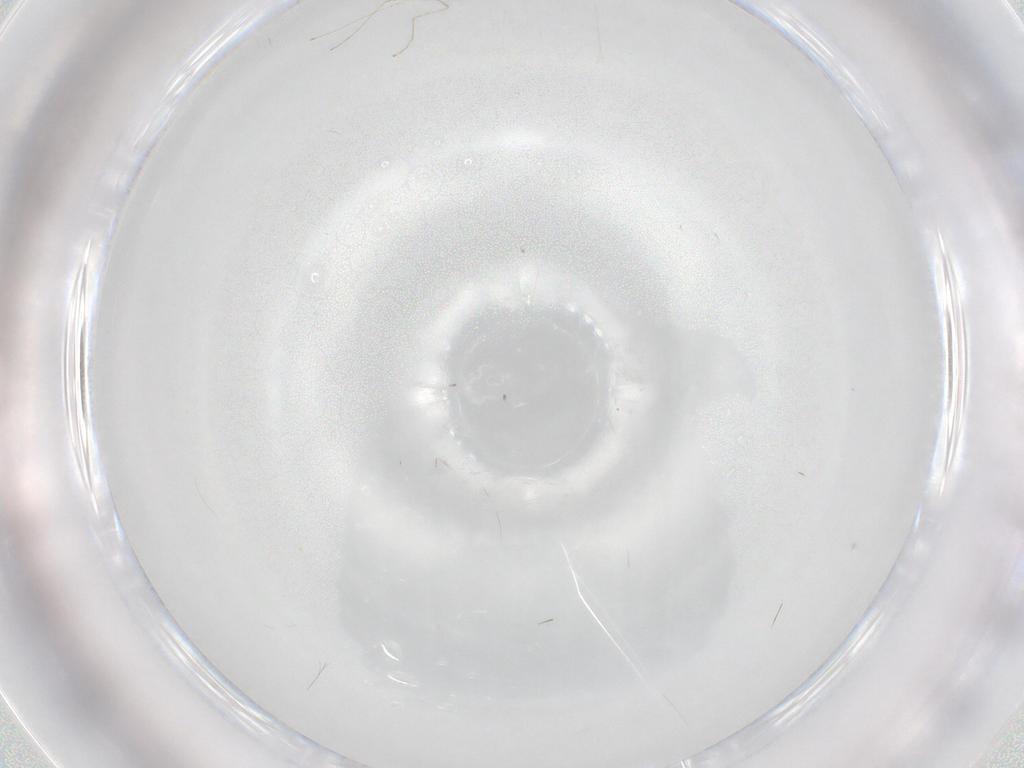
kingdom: Animalia
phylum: Arthropoda
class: Insecta
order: Diptera
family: Cecidomyiidae
